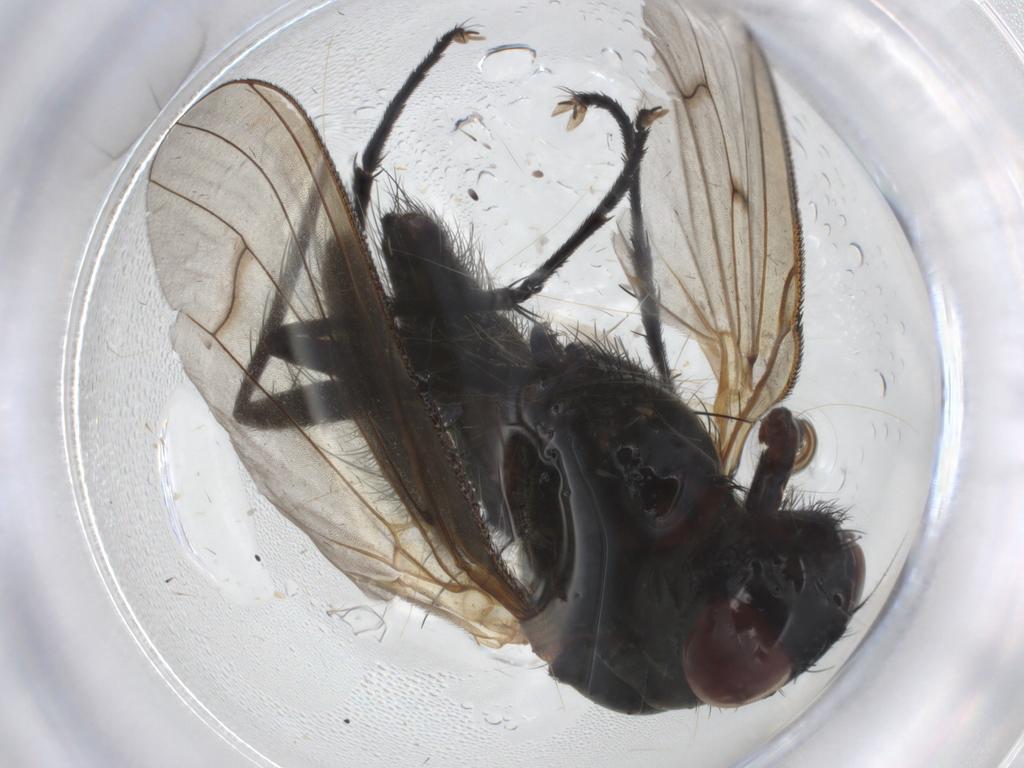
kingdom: Animalia
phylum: Arthropoda
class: Insecta
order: Diptera
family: Anthomyiidae
